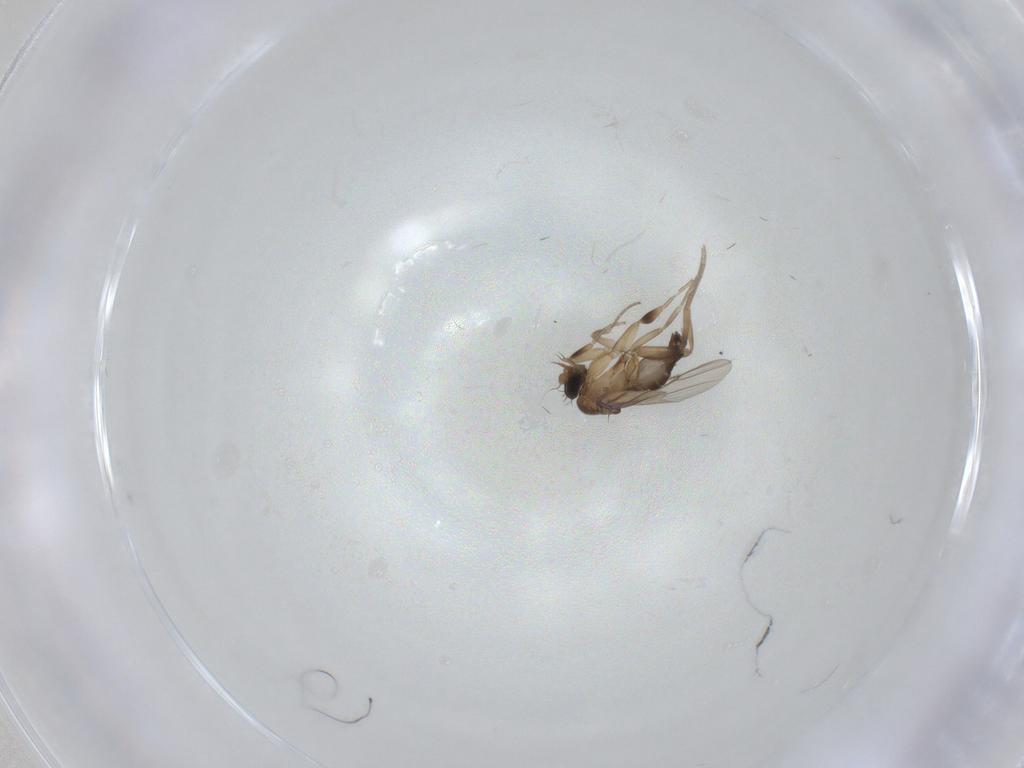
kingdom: Animalia
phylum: Arthropoda
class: Insecta
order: Diptera
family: Phoridae
